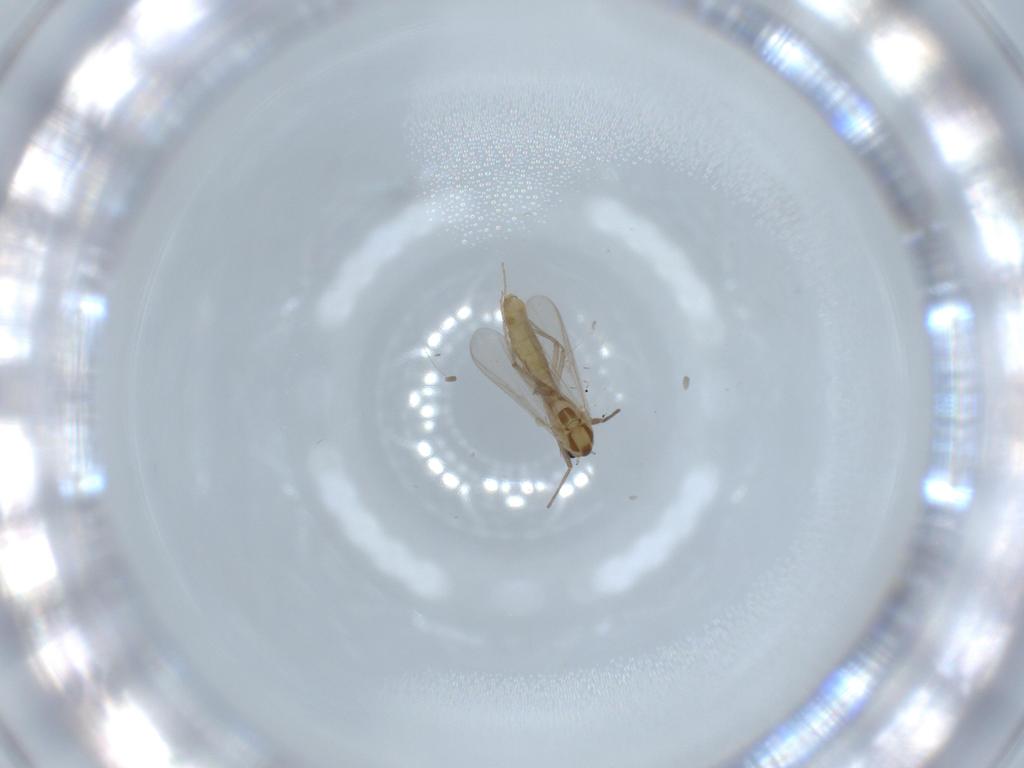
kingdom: Animalia
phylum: Arthropoda
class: Insecta
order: Diptera
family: Chironomidae
